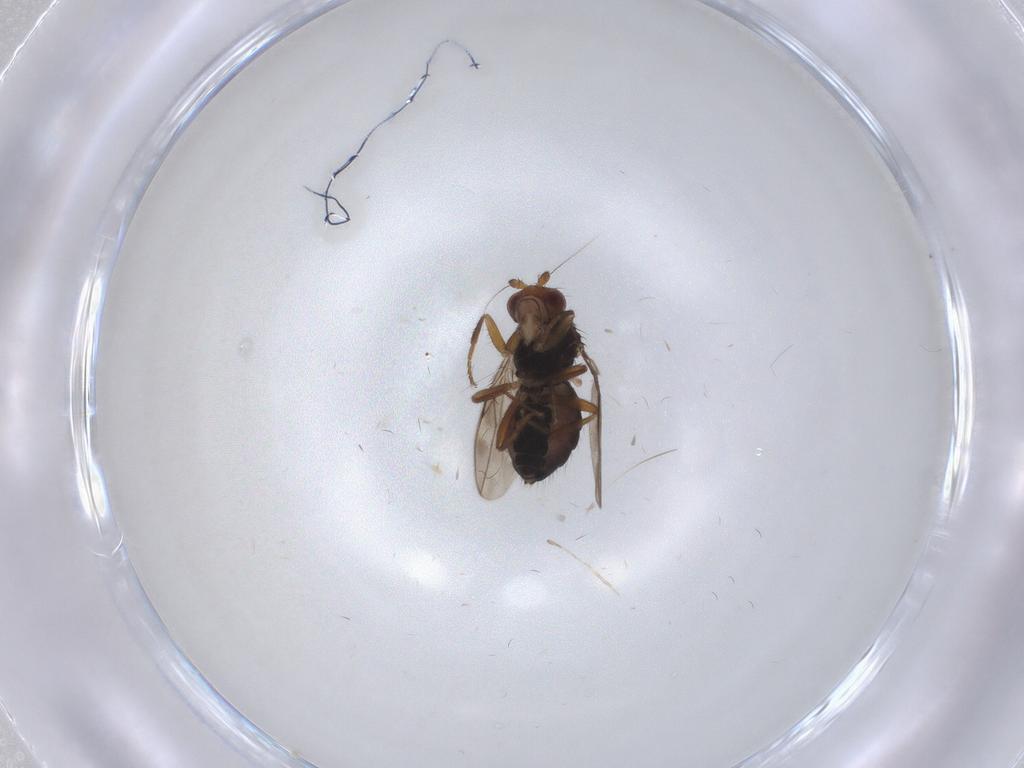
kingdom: Animalia
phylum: Arthropoda
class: Insecta
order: Diptera
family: Sphaeroceridae
